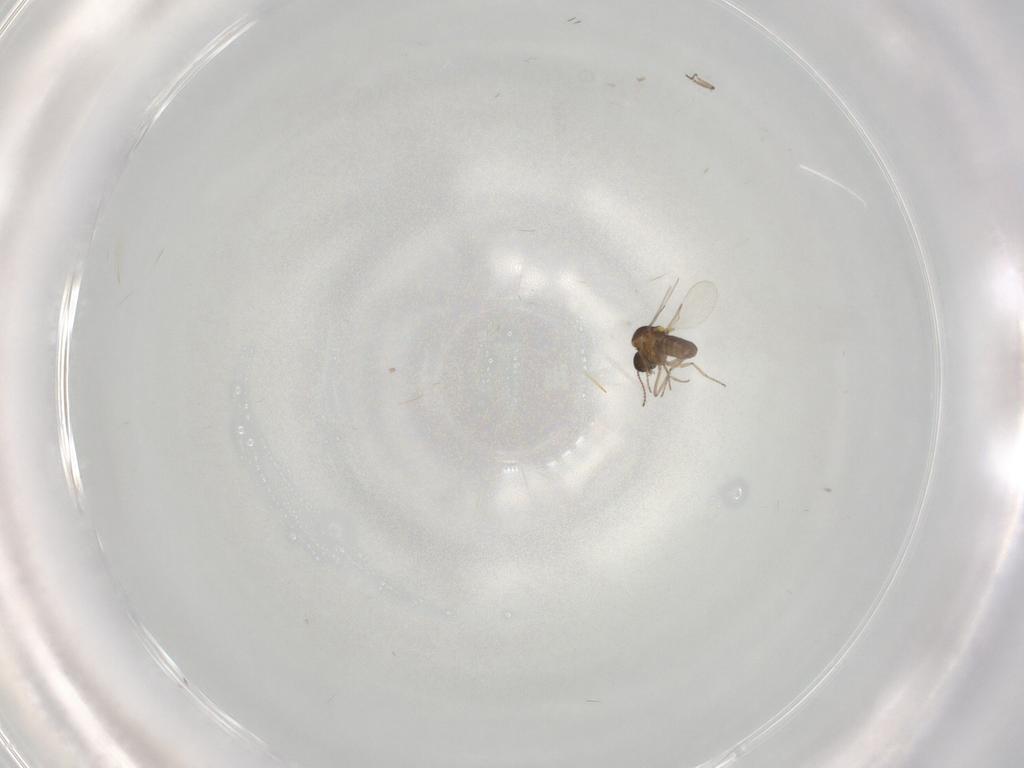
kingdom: Animalia
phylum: Arthropoda
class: Insecta
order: Diptera
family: Ceratopogonidae
